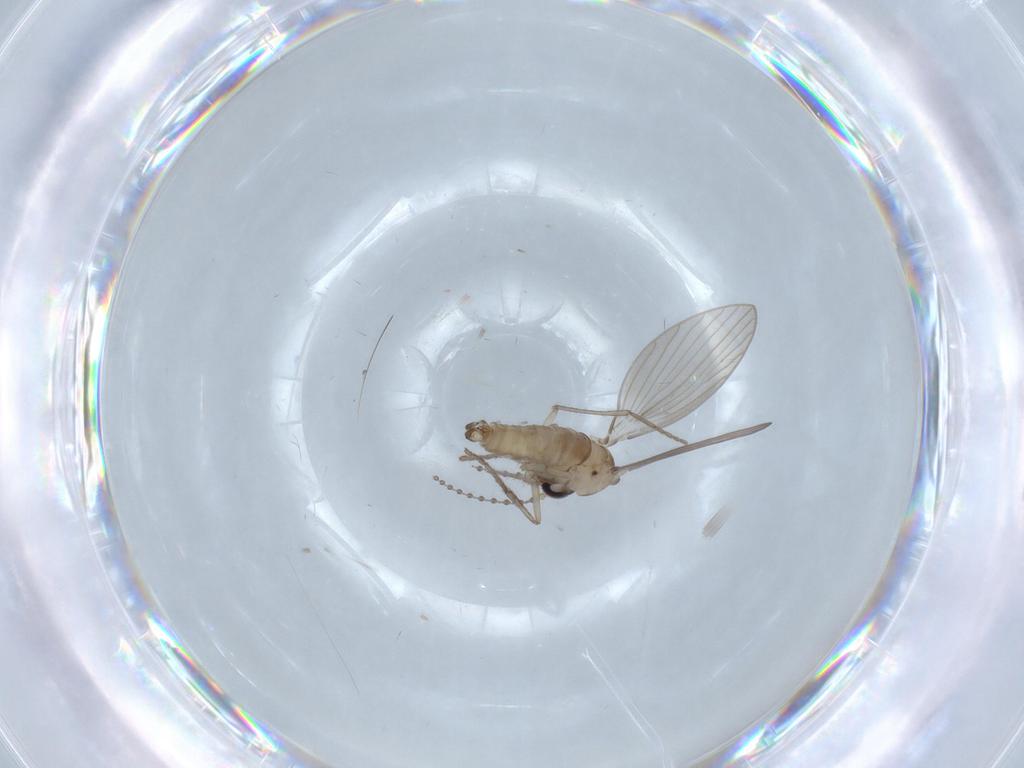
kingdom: Animalia
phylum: Arthropoda
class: Insecta
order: Diptera
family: Psychodidae
